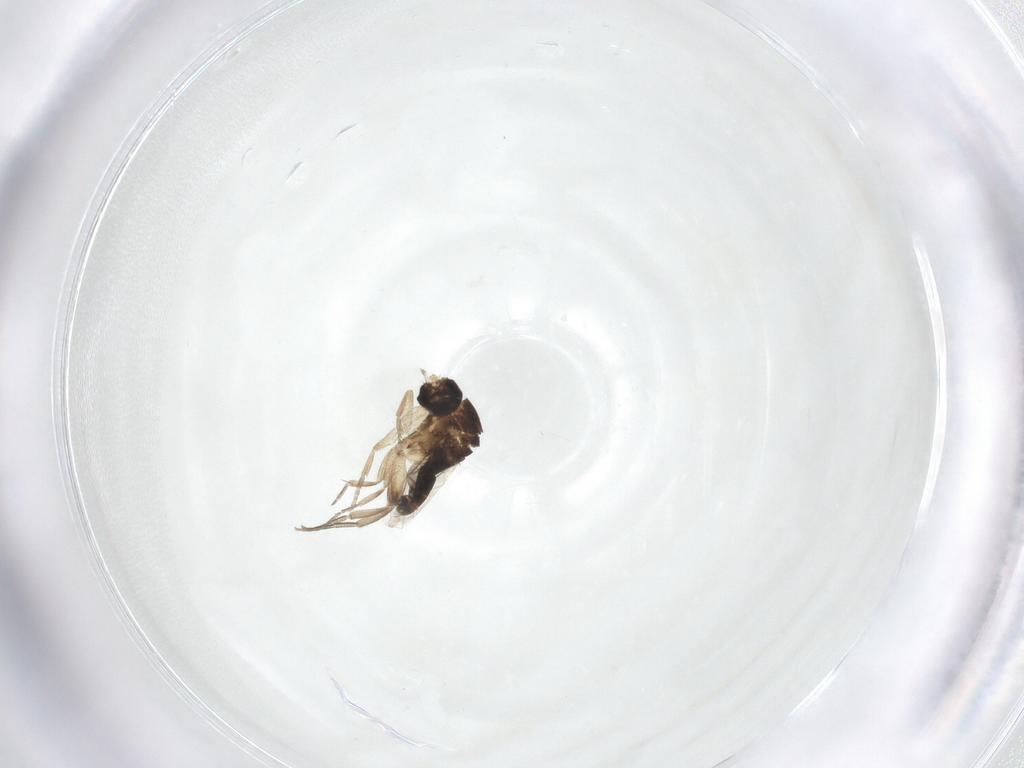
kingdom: Animalia
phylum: Arthropoda
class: Insecta
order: Diptera
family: Phoridae
